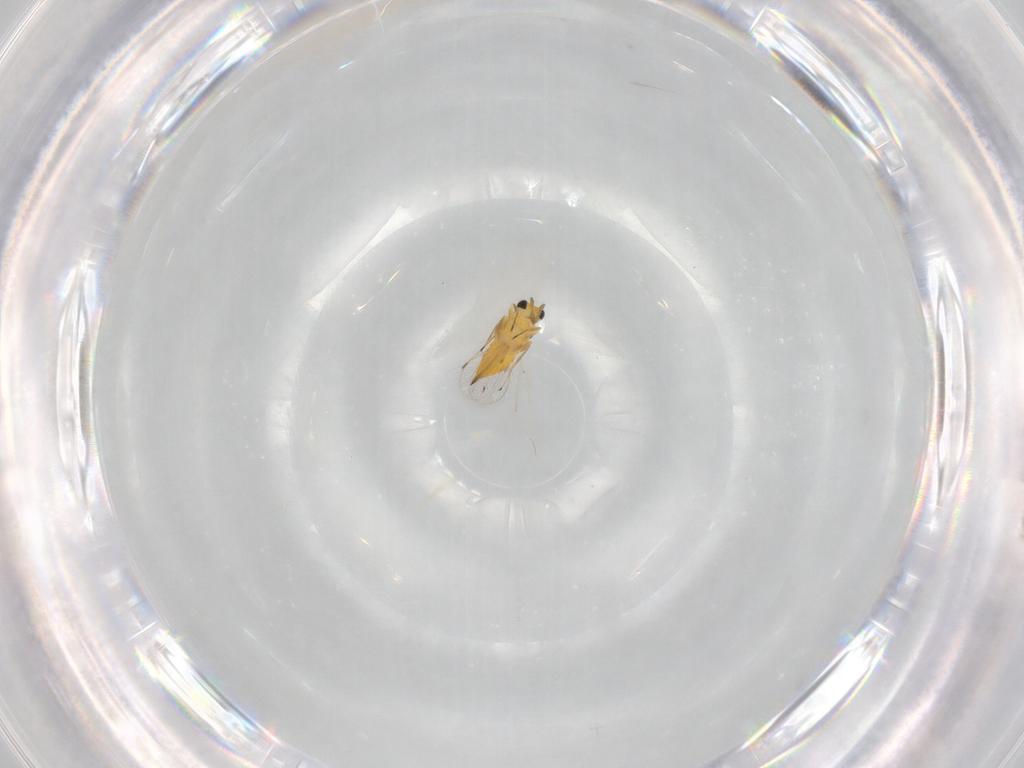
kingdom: Animalia
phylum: Arthropoda
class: Insecta
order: Hymenoptera
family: Trichogrammatidae
